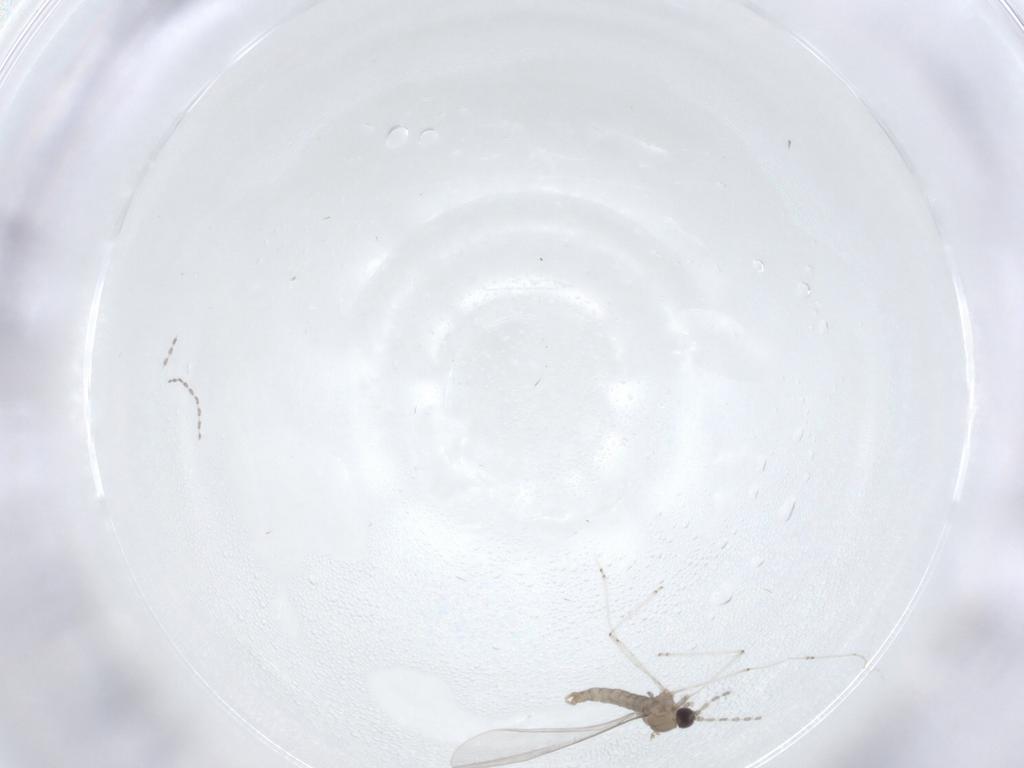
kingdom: Animalia
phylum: Arthropoda
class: Insecta
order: Diptera
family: Cecidomyiidae
